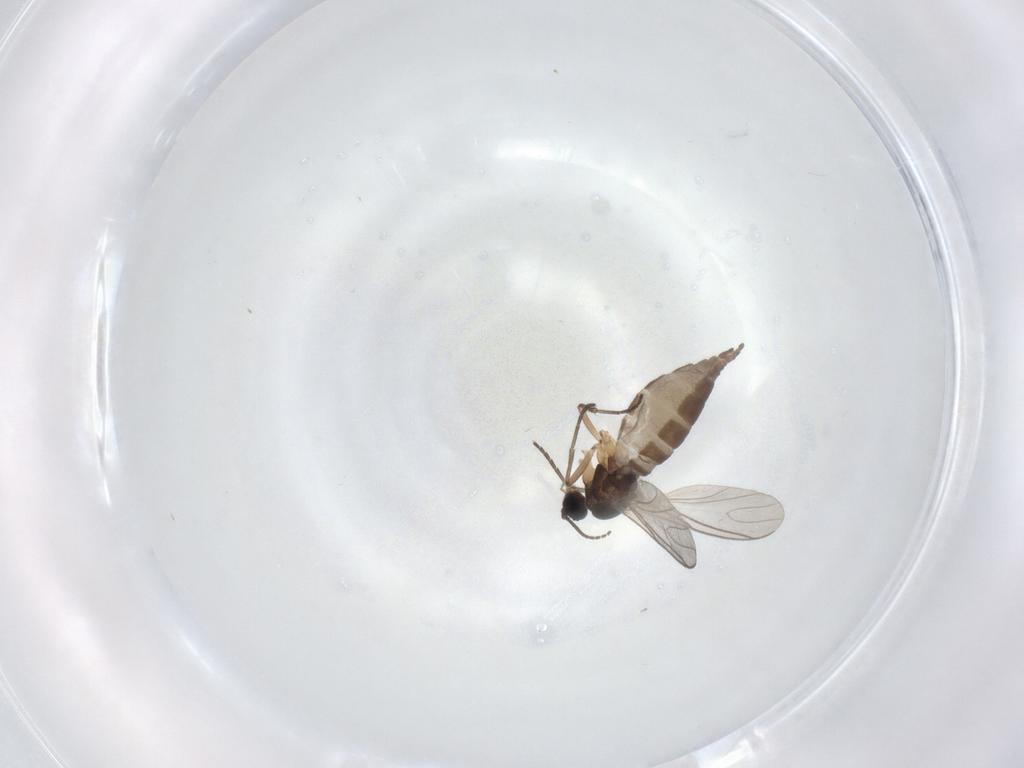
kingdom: Animalia
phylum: Arthropoda
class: Insecta
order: Diptera
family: Sciaridae
